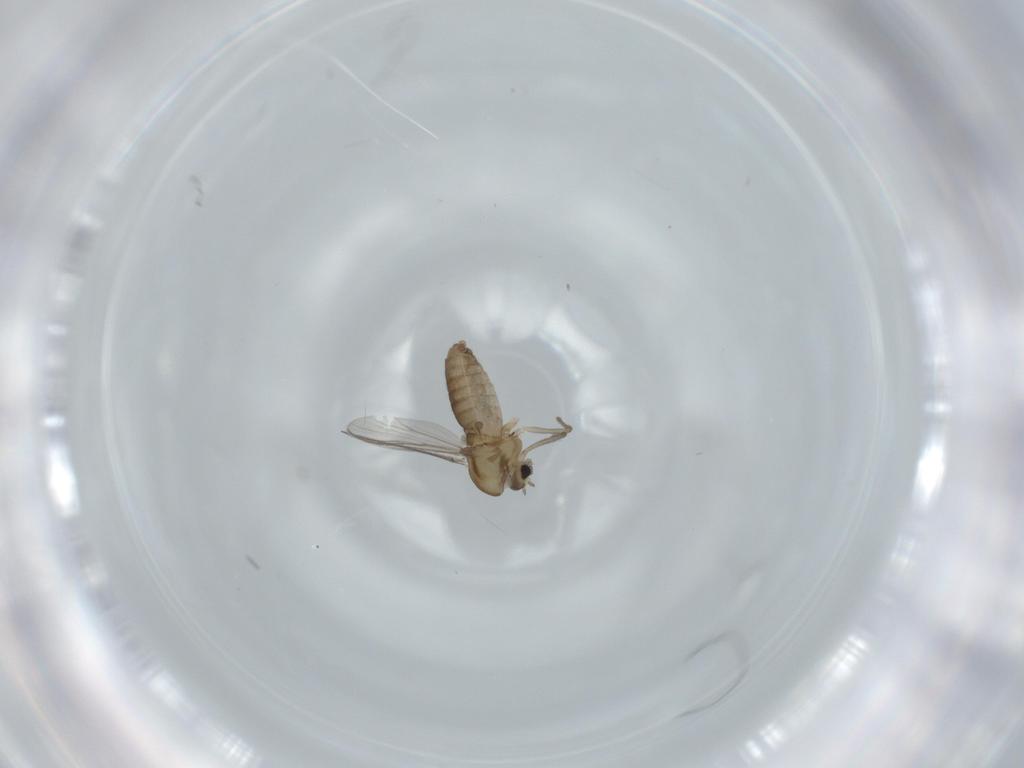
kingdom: Animalia
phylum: Arthropoda
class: Insecta
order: Diptera
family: Chironomidae
